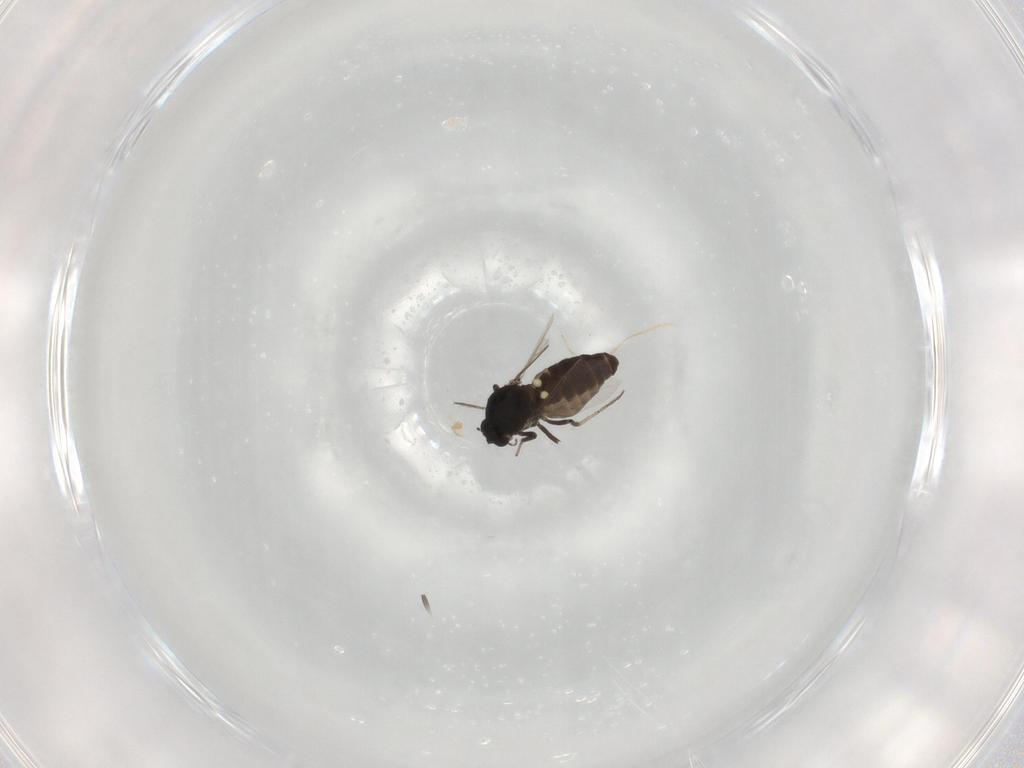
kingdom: Animalia
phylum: Arthropoda
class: Insecta
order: Diptera
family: Ceratopogonidae
